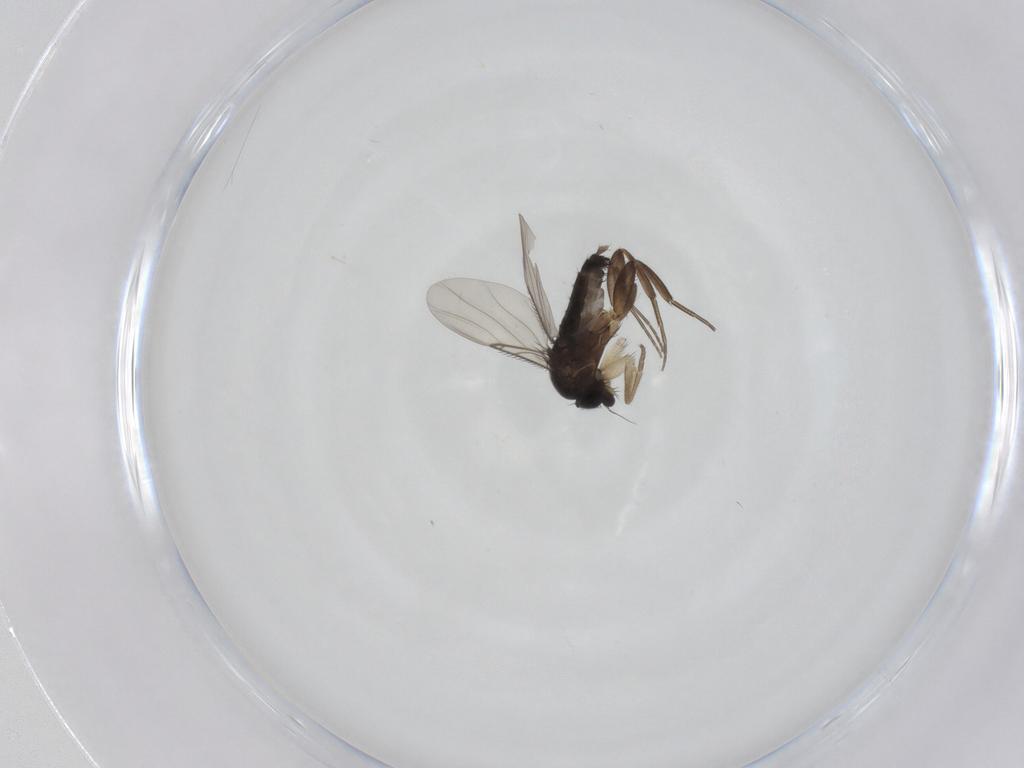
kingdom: Animalia
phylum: Arthropoda
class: Insecta
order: Diptera
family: Phoridae
